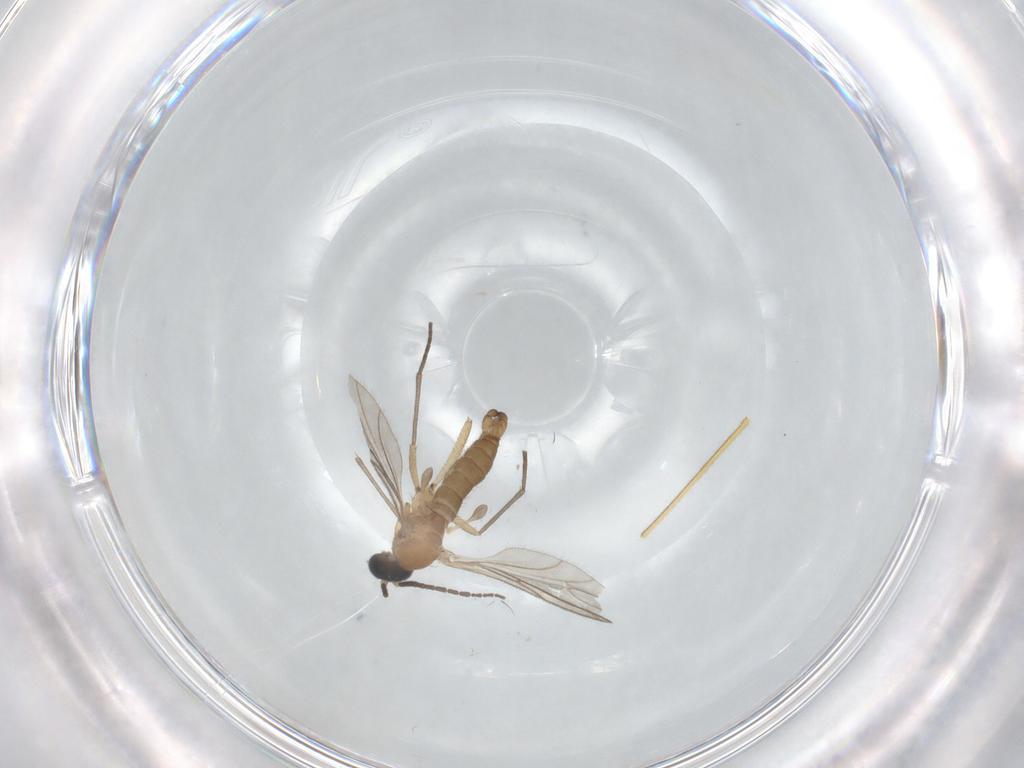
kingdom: Animalia
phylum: Arthropoda
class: Insecta
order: Diptera
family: Sciaridae
